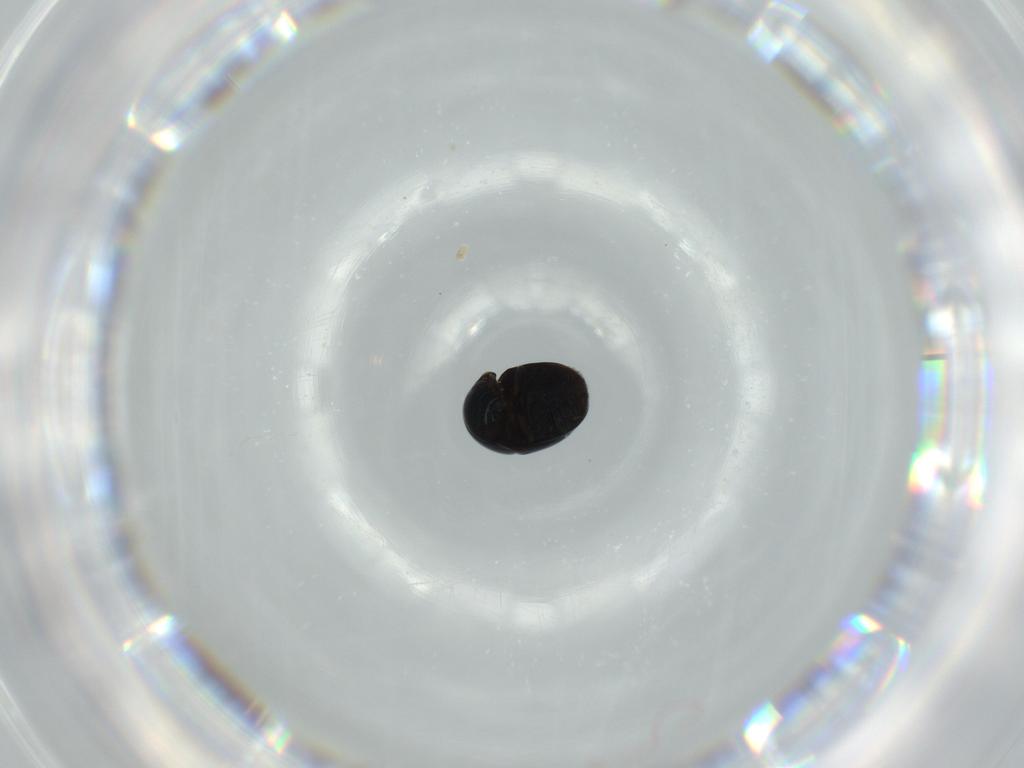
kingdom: Animalia
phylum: Arthropoda
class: Insecta
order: Coleoptera
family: Cybocephalidae
